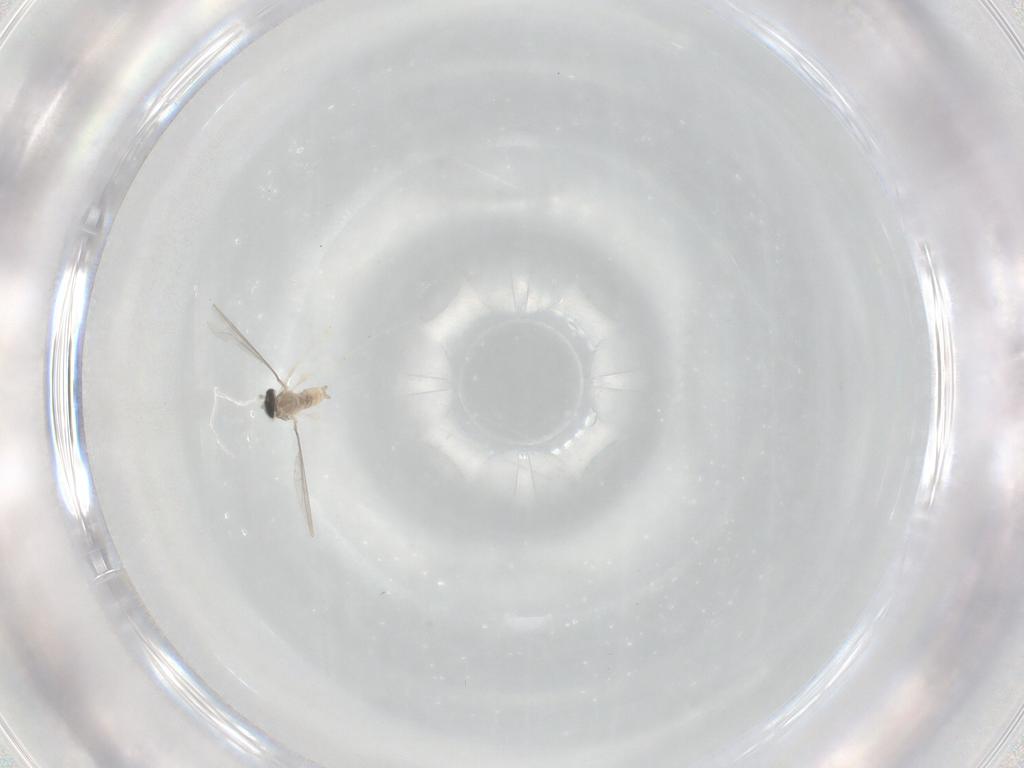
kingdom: Animalia
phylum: Arthropoda
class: Insecta
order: Diptera
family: Cecidomyiidae
